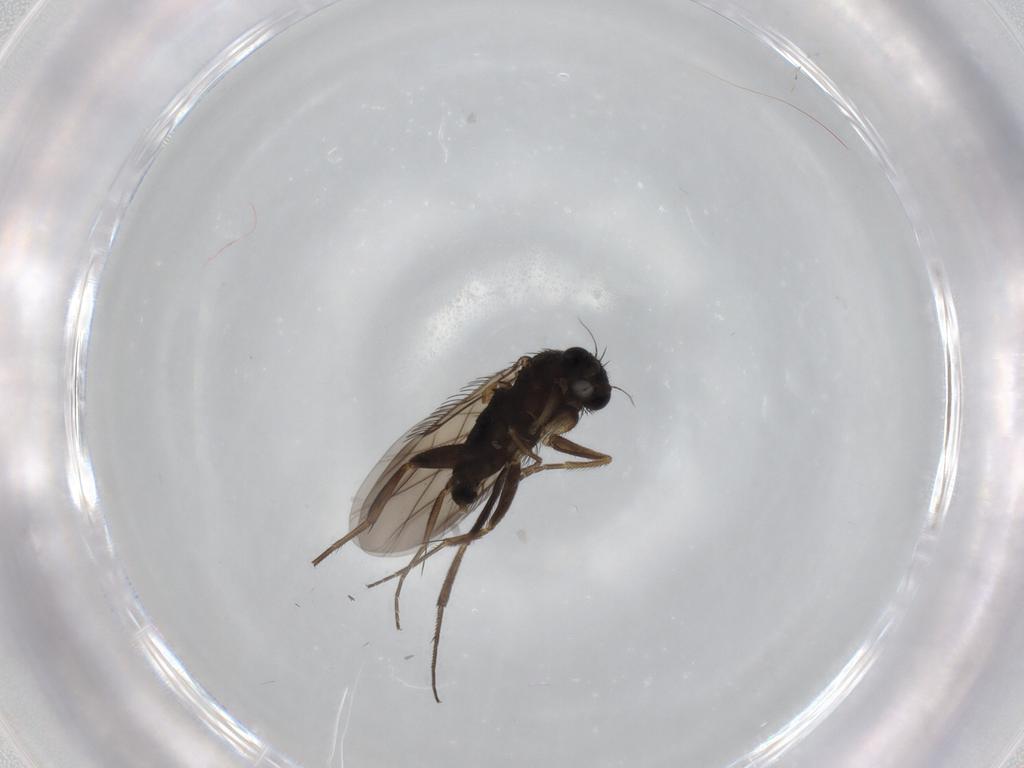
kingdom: Animalia
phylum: Arthropoda
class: Insecta
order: Diptera
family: Phoridae
